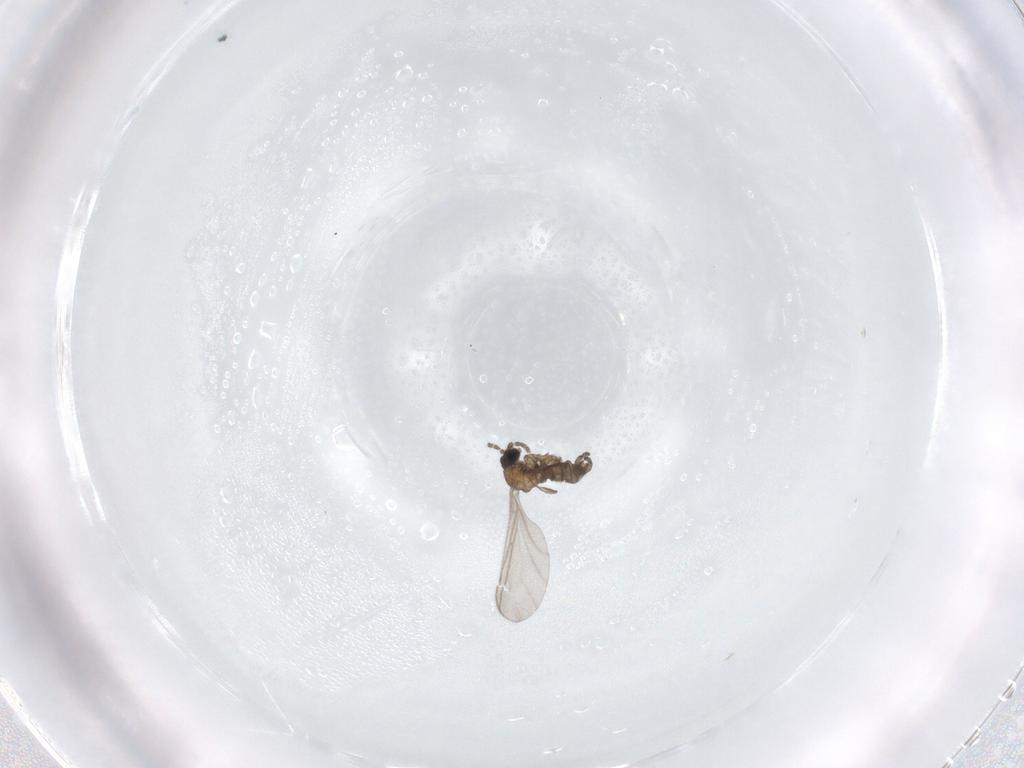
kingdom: Animalia
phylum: Arthropoda
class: Insecta
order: Diptera
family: Sciaridae
